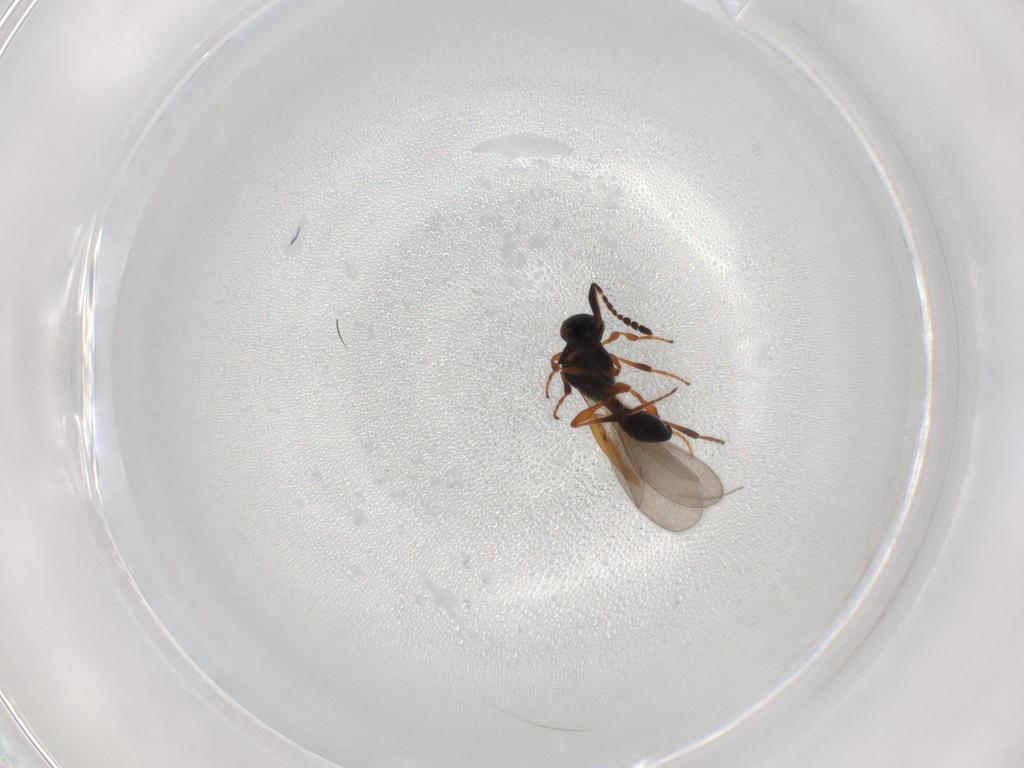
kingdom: Animalia
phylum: Arthropoda
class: Insecta
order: Hymenoptera
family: Platygastridae
